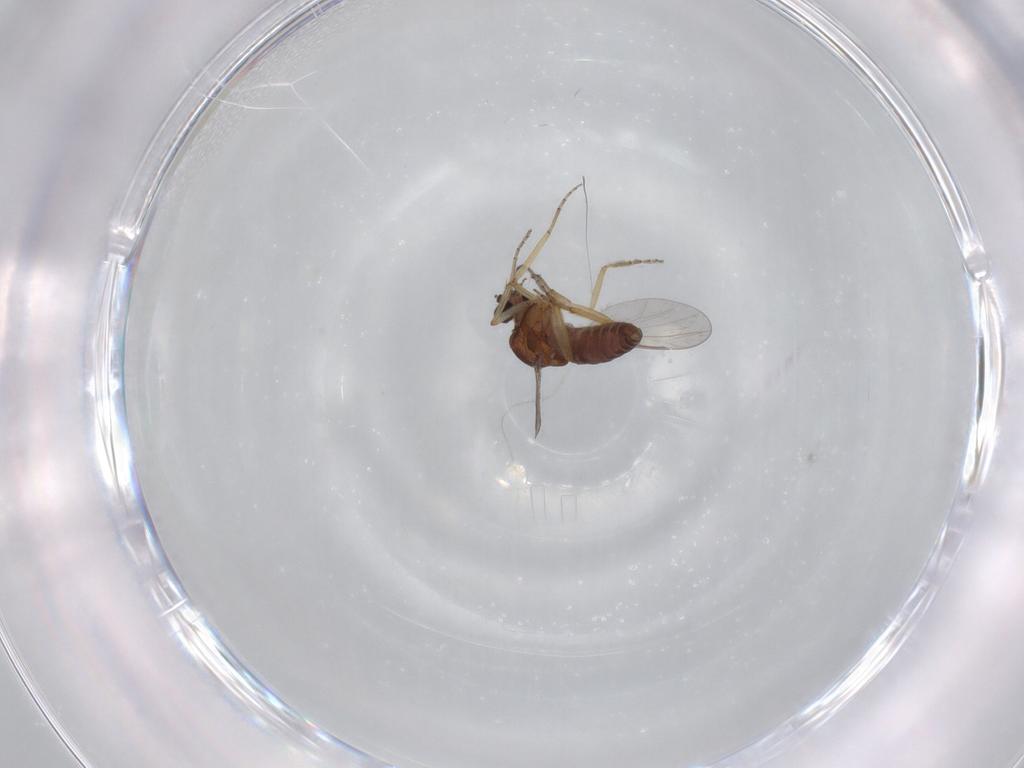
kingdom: Animalia
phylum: Arthropoda
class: Insecta
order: Diptera
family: Ceratopogonidae
